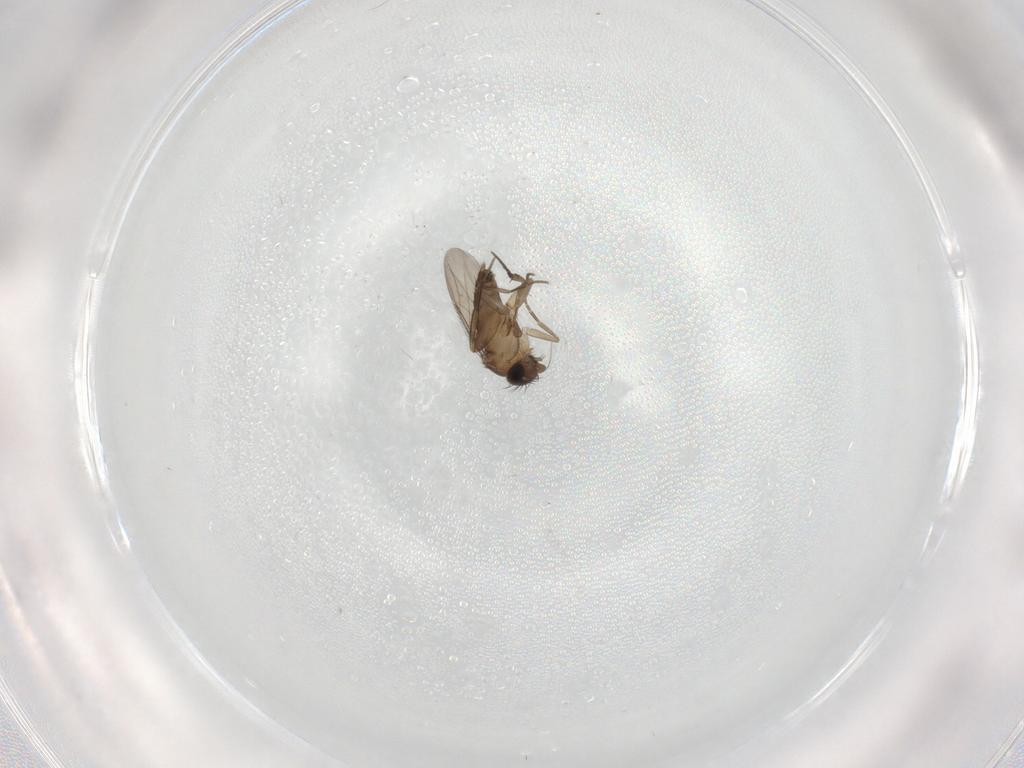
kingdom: Animalia
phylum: Arthropoda
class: Insecta
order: Diptera
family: Phoridae
